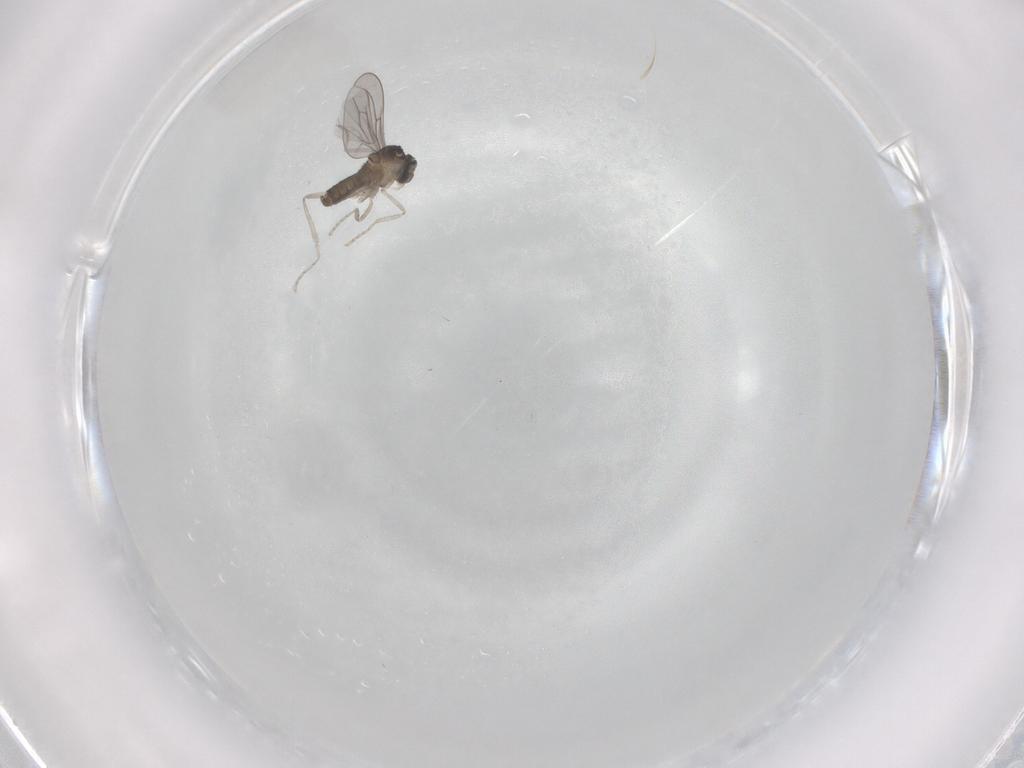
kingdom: Animalia
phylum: Arthropoda
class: Insecta
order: Diptera
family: Cecidomyiidae
